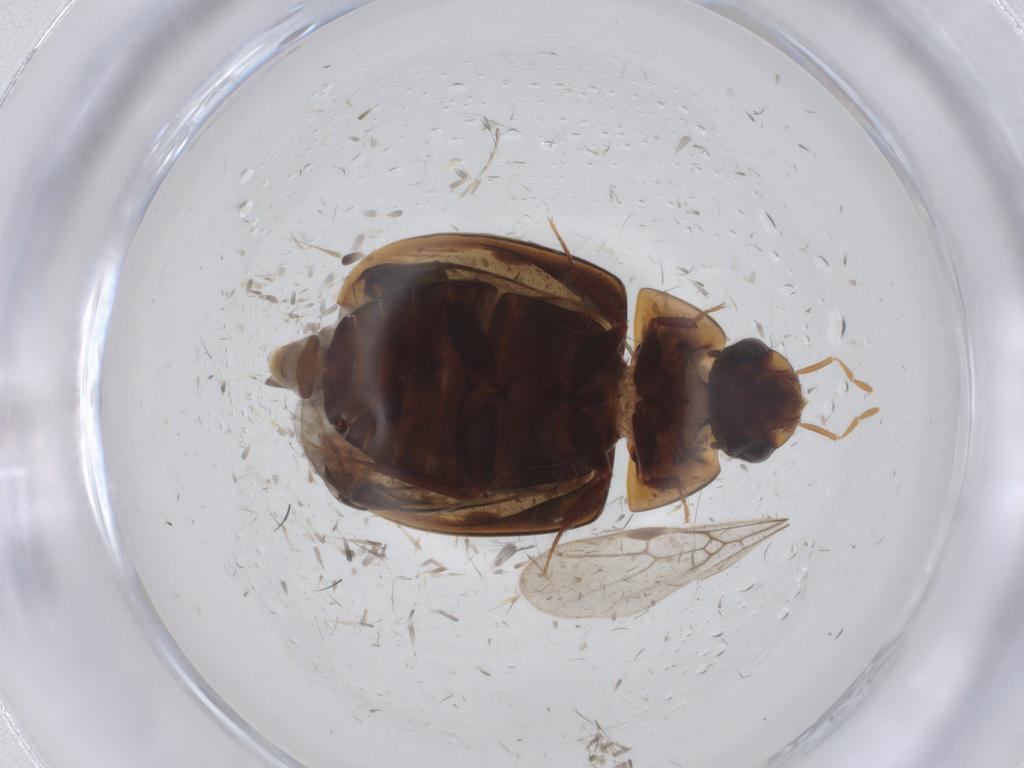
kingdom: Animalia
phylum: Arthropoda
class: Insecta
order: Coleoptera
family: Hydrophilidae
